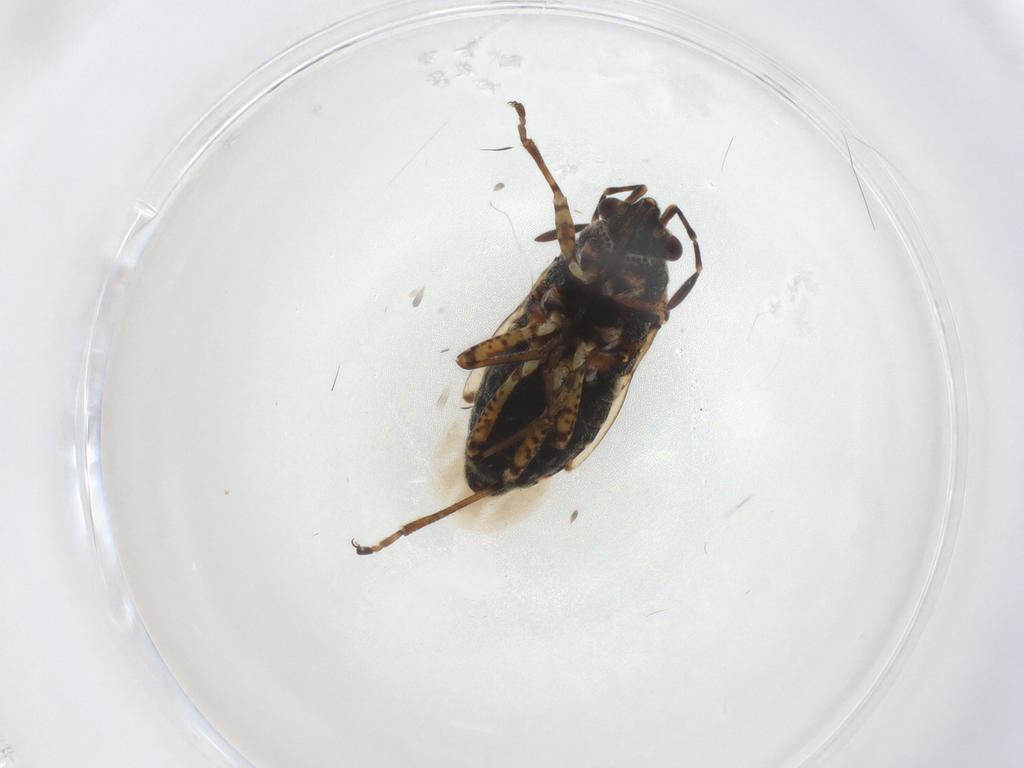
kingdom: Animalia
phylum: Arthropoda
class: Insecta
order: Hemiptera
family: Lygaeidae
